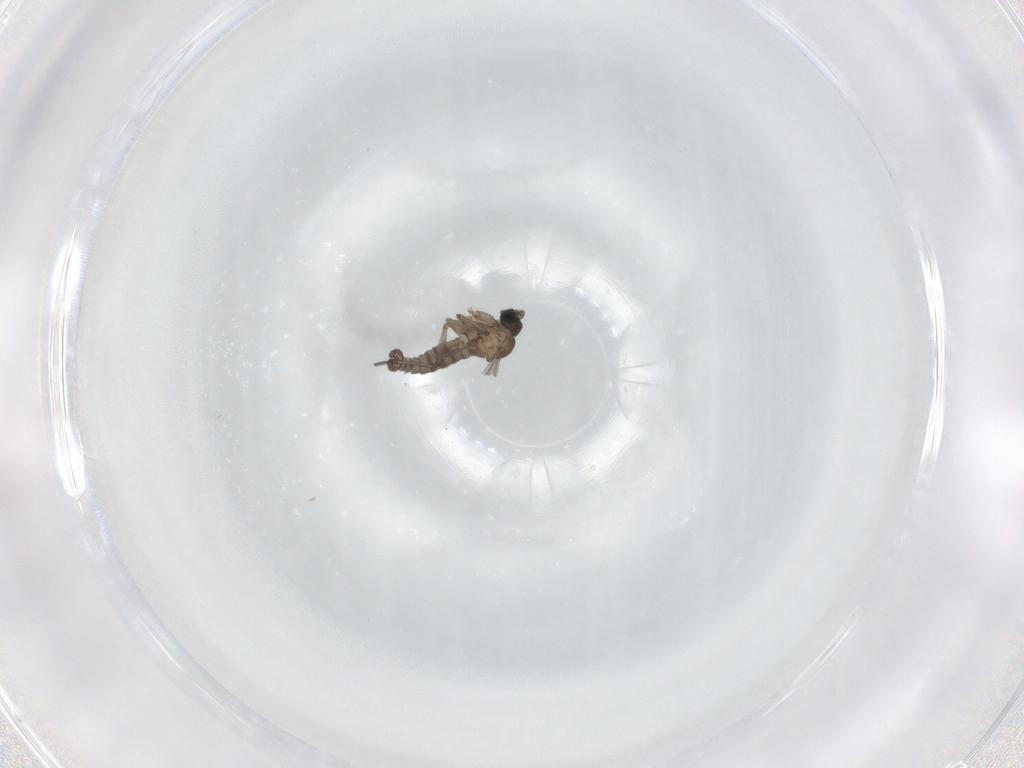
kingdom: Animalia
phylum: Arthropoda
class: Insecta
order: Diptera
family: Sciaridae
